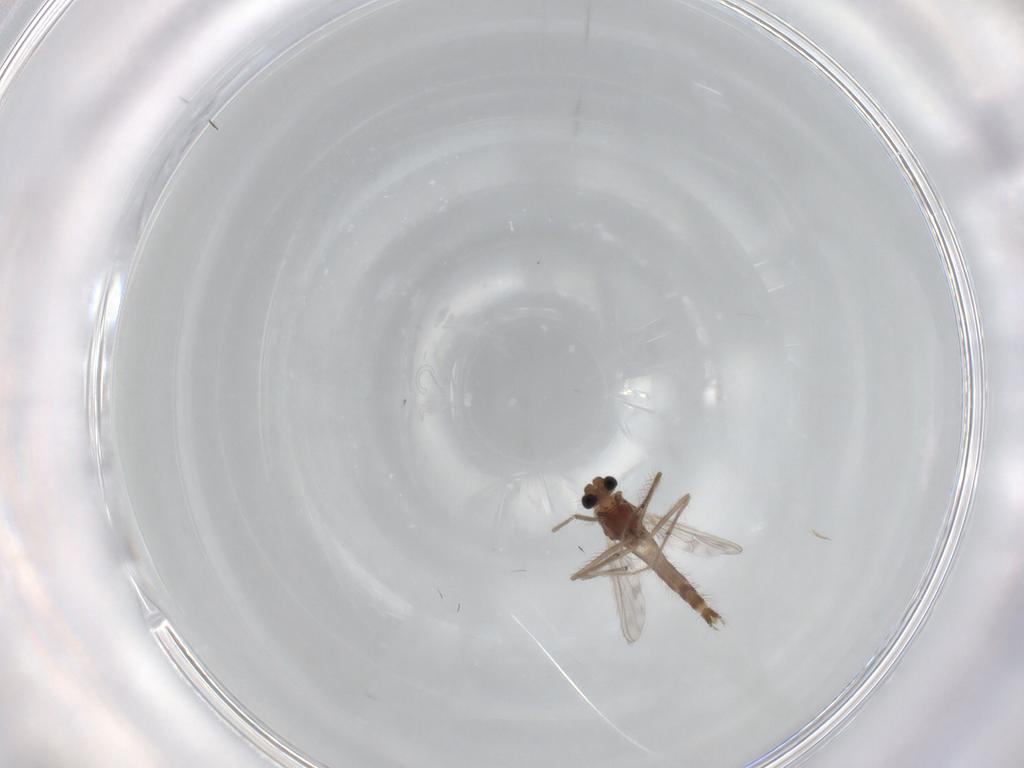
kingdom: Animalia
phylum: Arthropoda
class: Insecta
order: Diptera
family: Chironomidae
